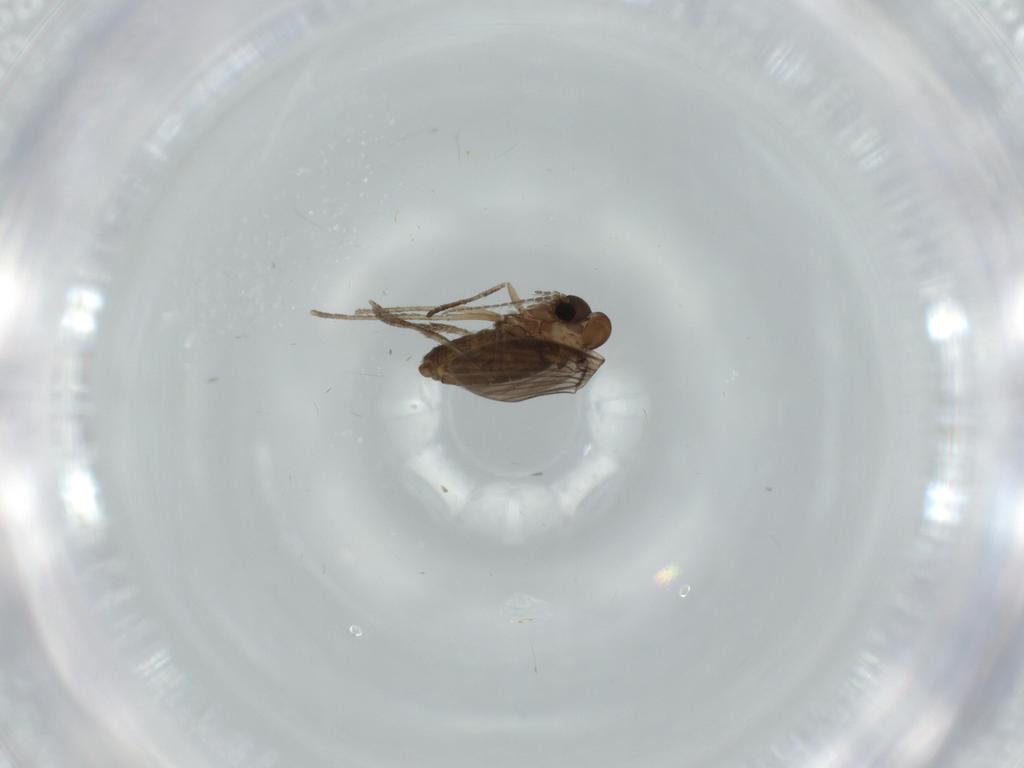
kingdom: Animalia
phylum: Arthropoda
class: Insecta
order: Diptera
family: Psychodidae
